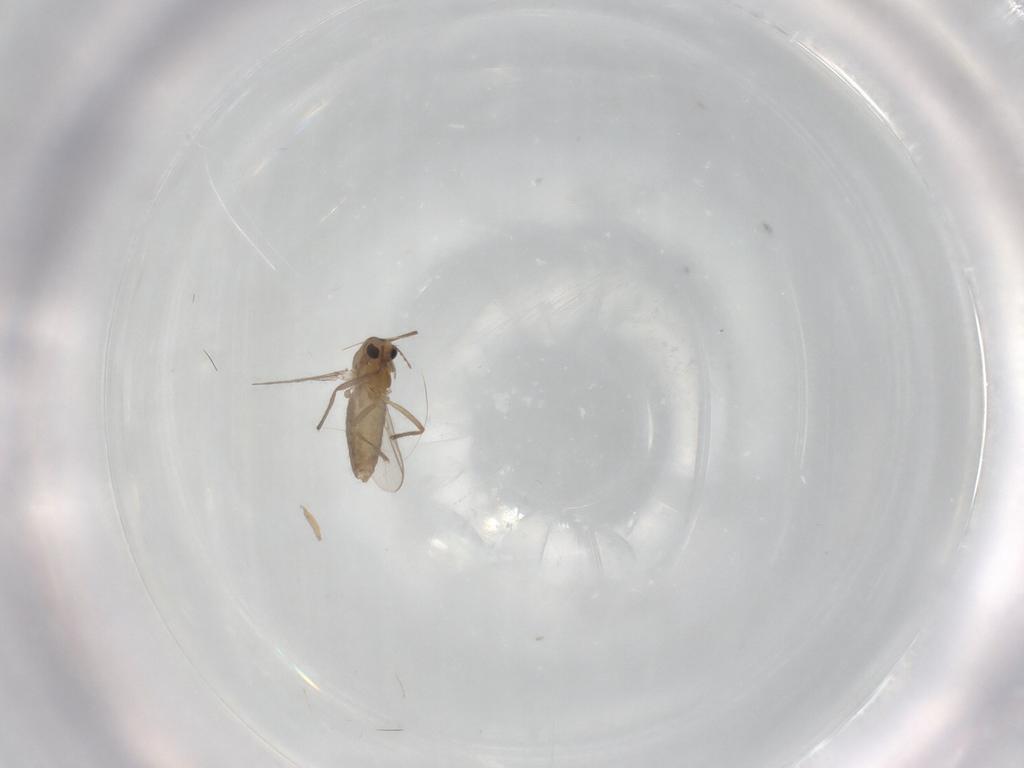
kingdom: Animalia
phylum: Arthropoda
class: Insecta
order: Diptera
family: Chironomidae
